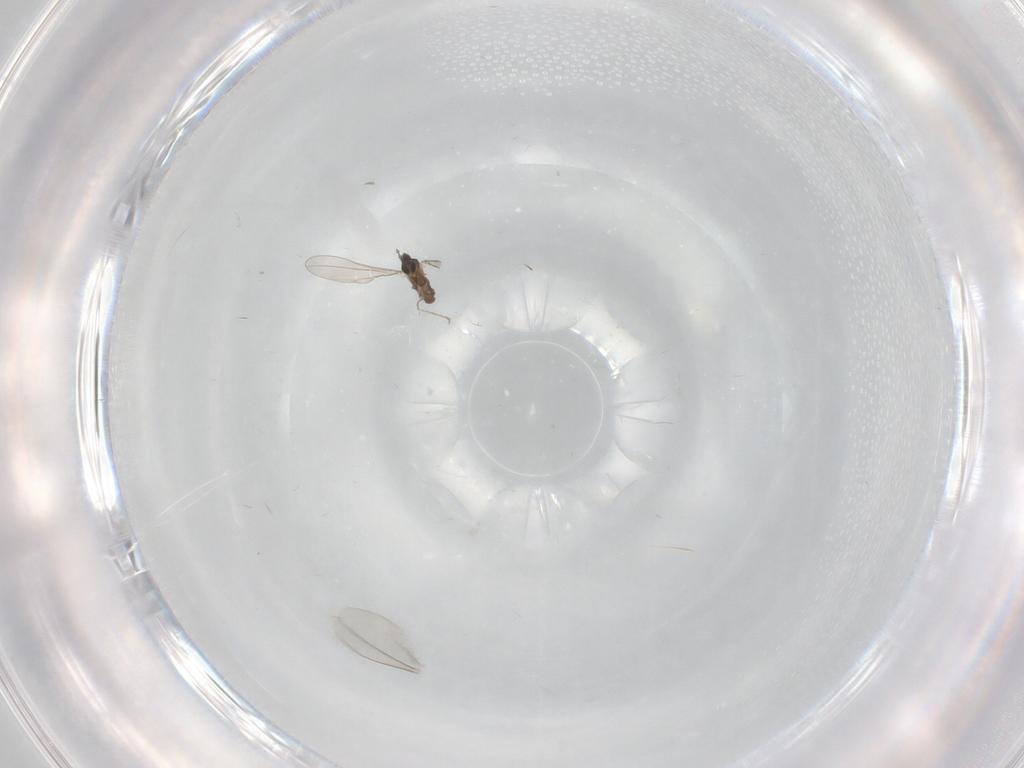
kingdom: Animalia
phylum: Arthropoda
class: Insecta
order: Diptera
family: Cecidomyiidae
